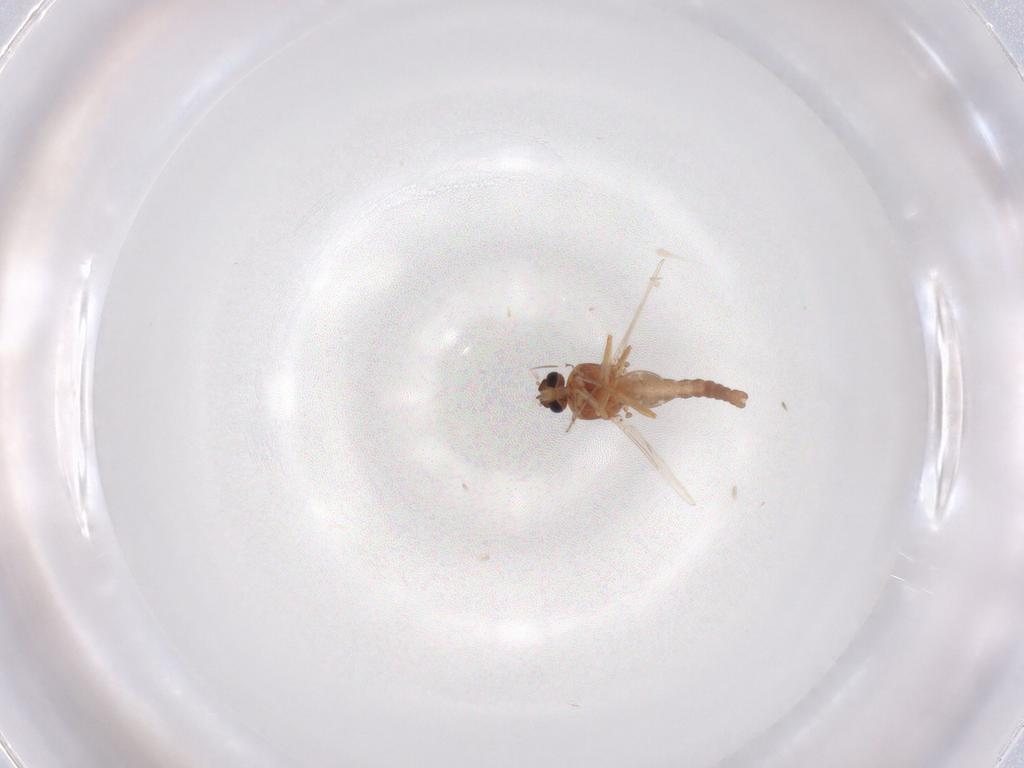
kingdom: Animalia
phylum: Arthropoda
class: Insecta
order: Diptera
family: Ceratopogonidae
